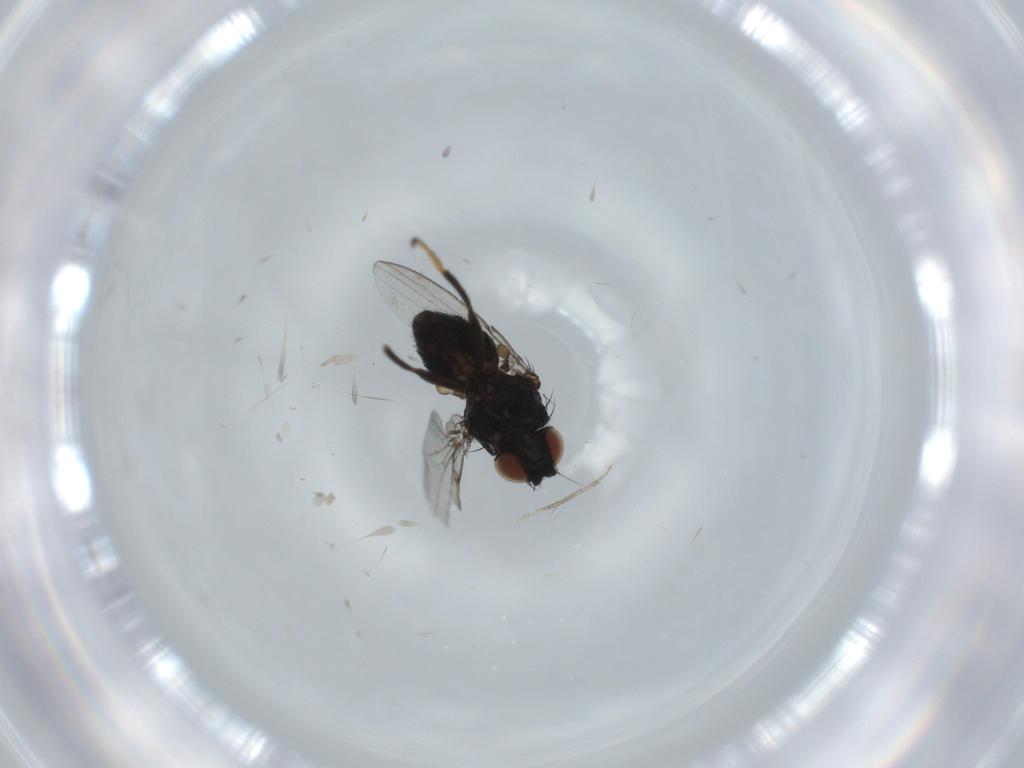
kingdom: Animalia
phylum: Arthropoda
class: Insecta
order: Diptera
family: Milichiidae
